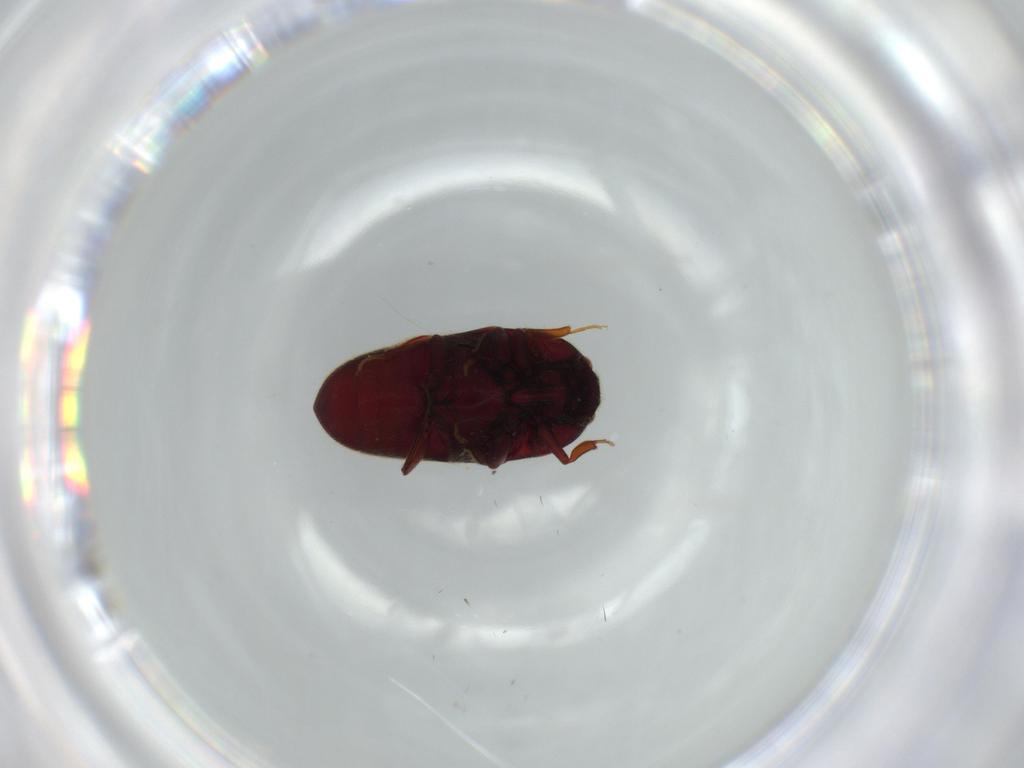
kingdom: Animalia
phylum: Arthropoda
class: Insecta
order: Coleoptera
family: Throscidae
